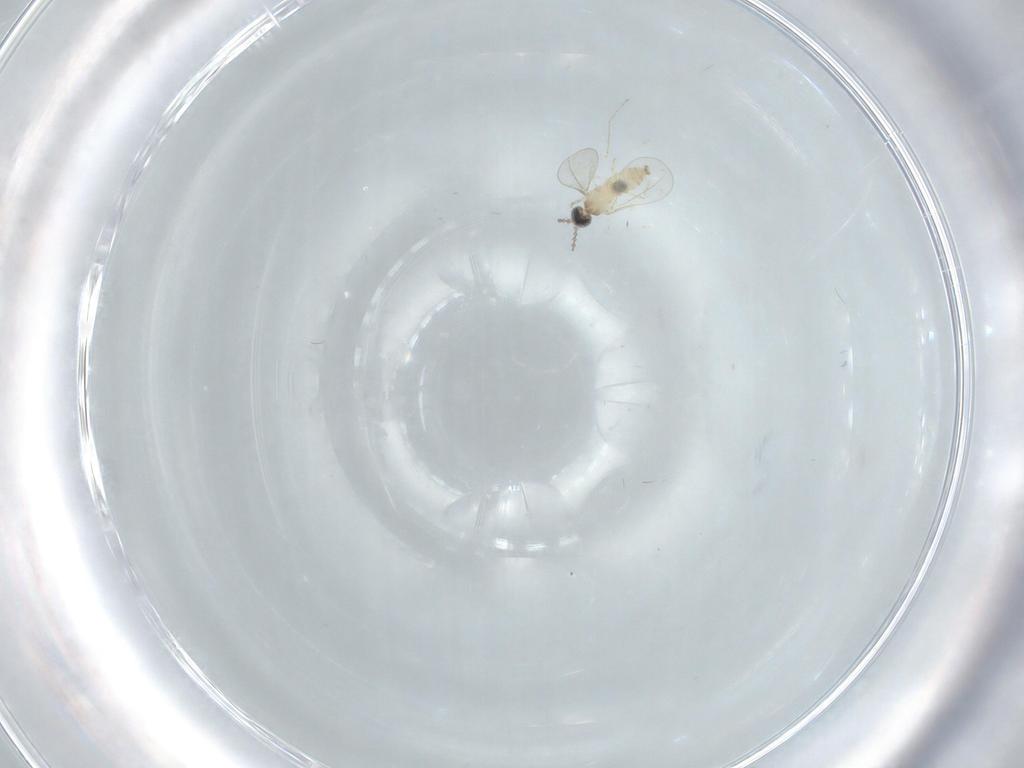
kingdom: Animalia
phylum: Arthropoda
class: Insecta
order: Diptera
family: Cecidomyiidae
